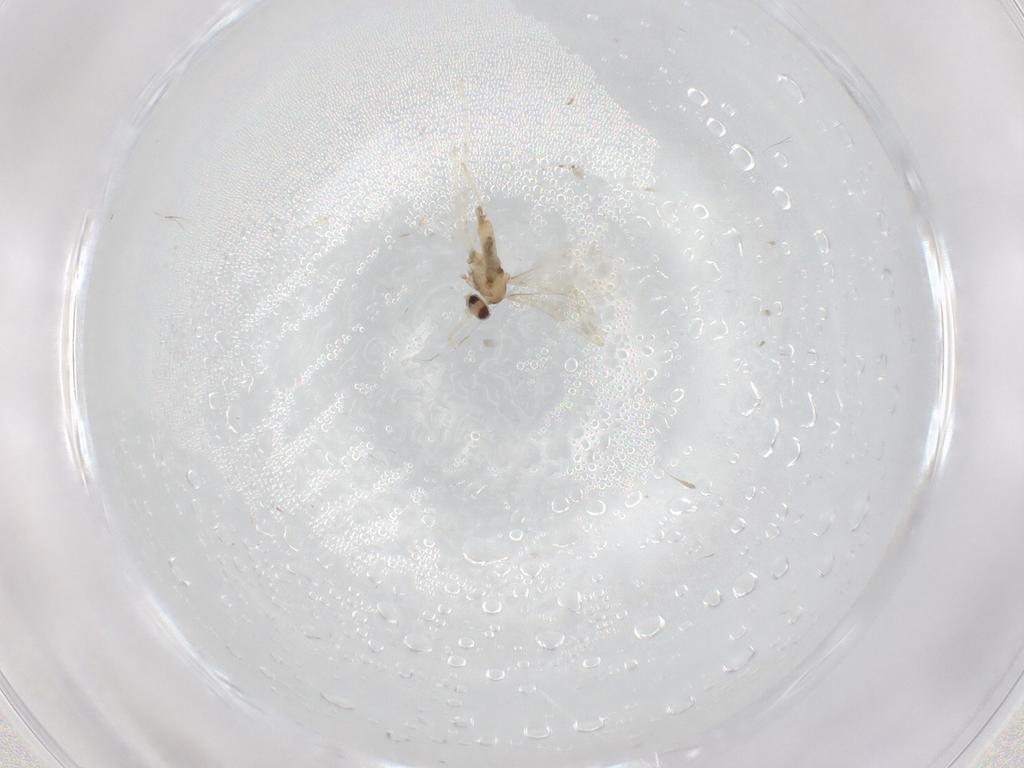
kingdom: Animalia
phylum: Arthropoda
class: Insecta
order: Diptera
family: Cecidomyiidae
